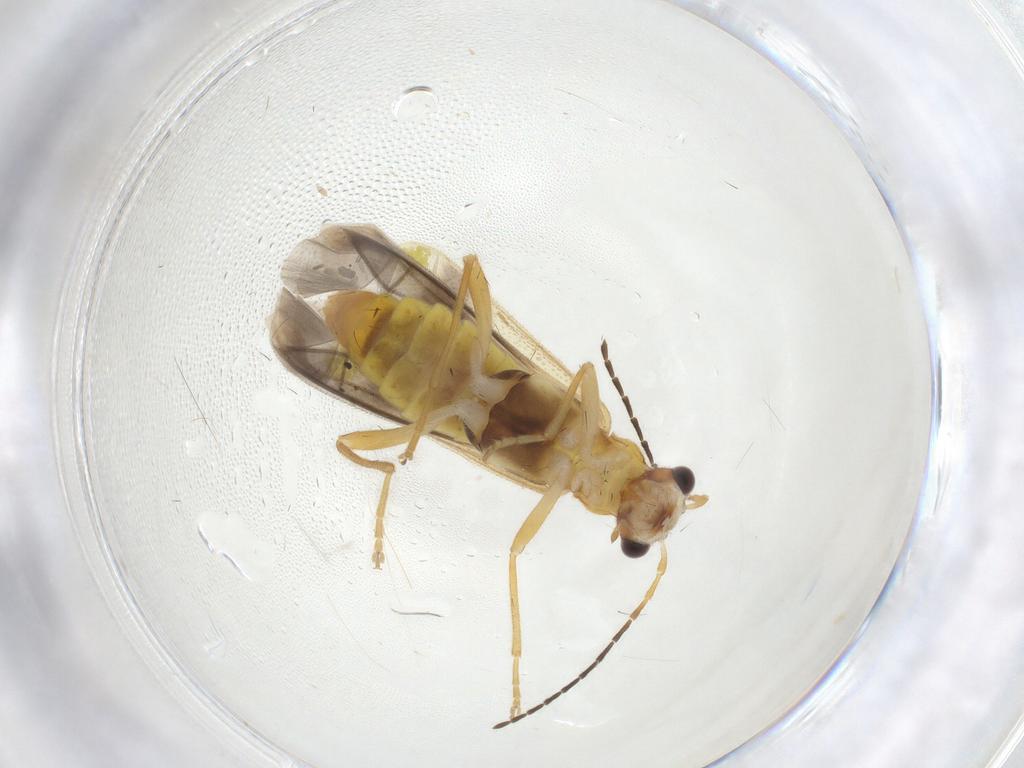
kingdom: Animalia
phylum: Arthropoda
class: Insecta
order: Coleoptera
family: Cantharidae
